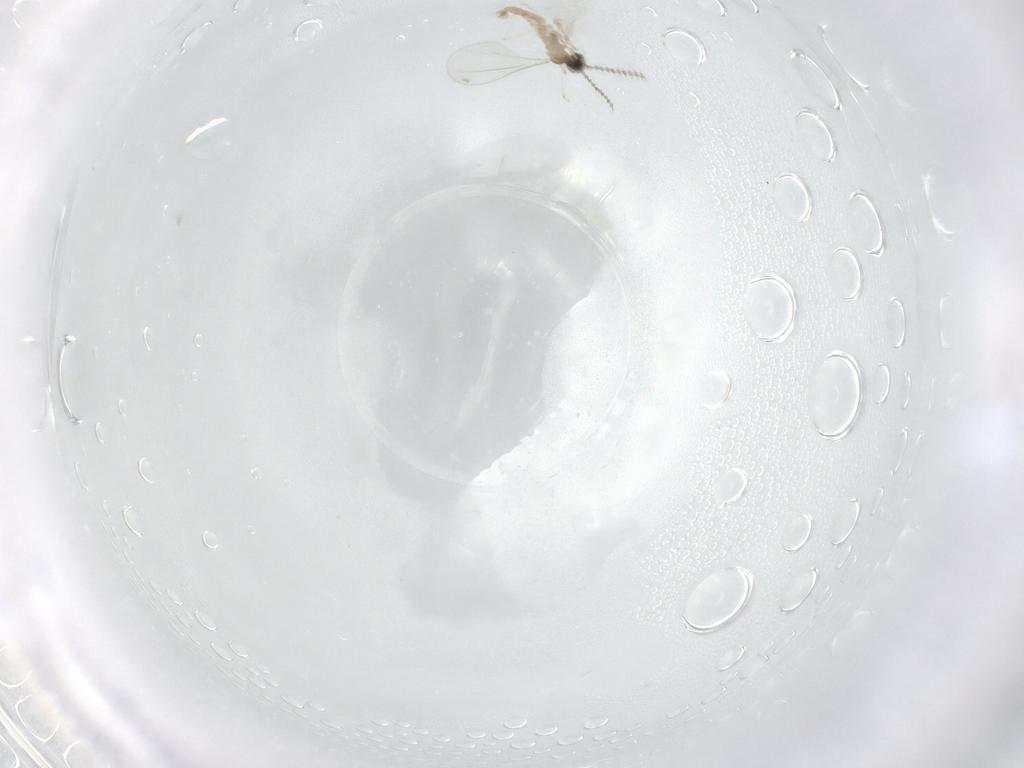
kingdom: Animalia
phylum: Arthropoda
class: Insecta
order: Diptera
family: Cecidomyiidae
